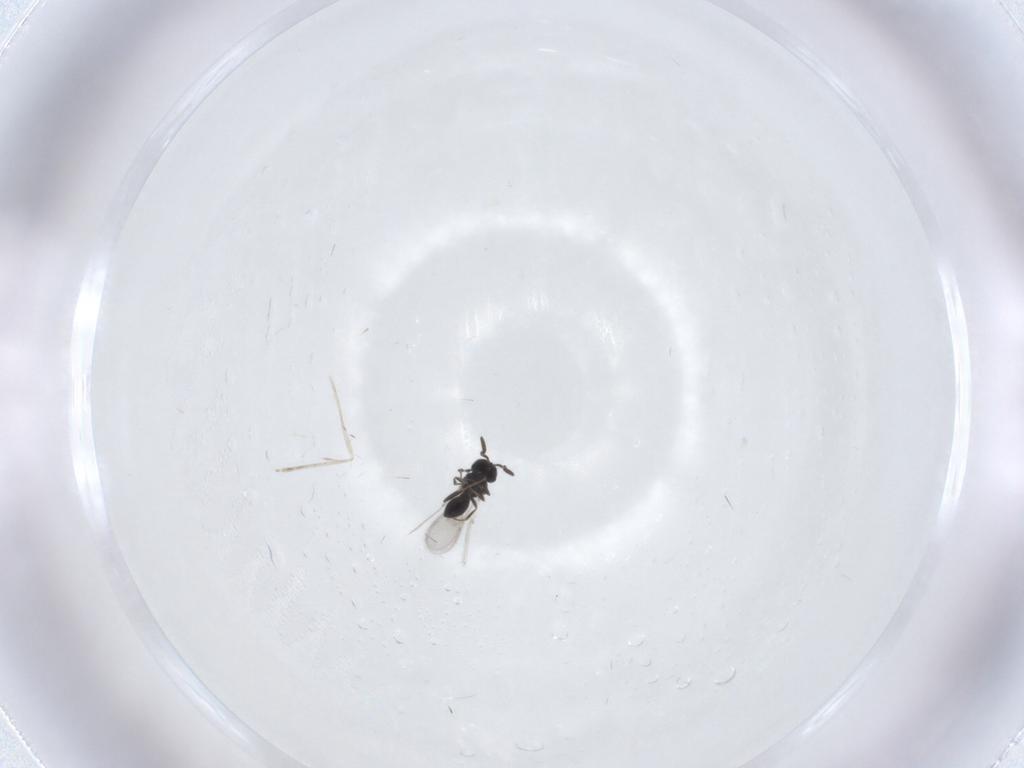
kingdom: Animalia
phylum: Arthropoda
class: Insecta
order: Hymenoptera
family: Scelionidae
